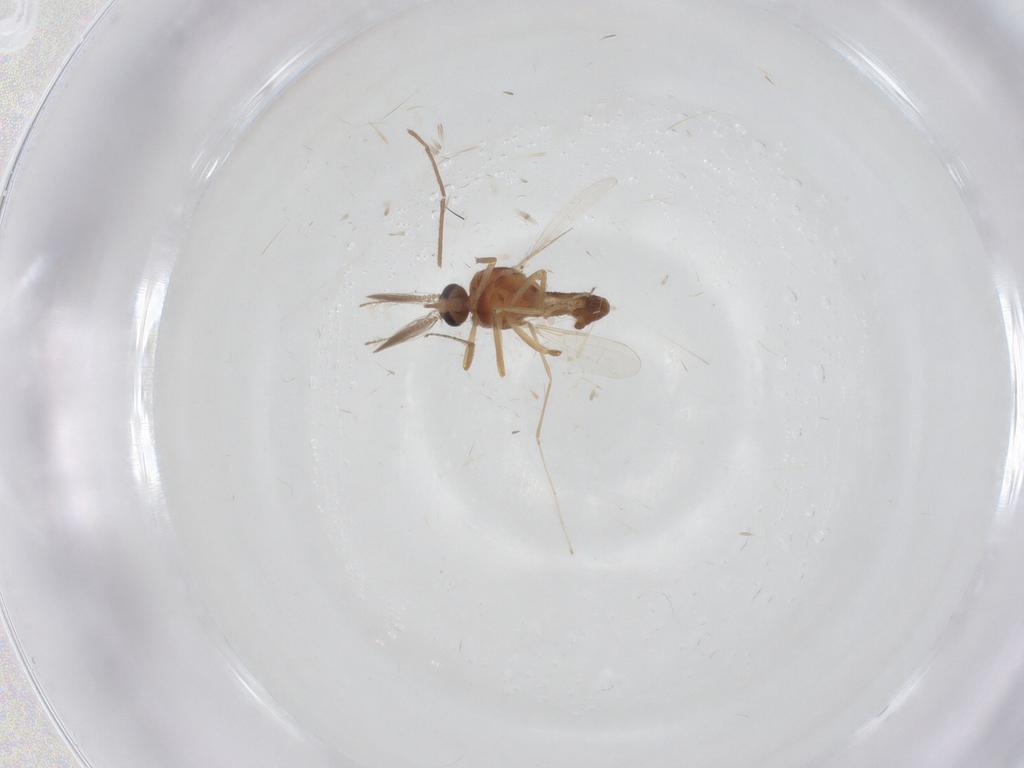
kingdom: Animalia
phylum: Arthropoda
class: Insecta
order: Diptera
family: Ceratopogonidae
